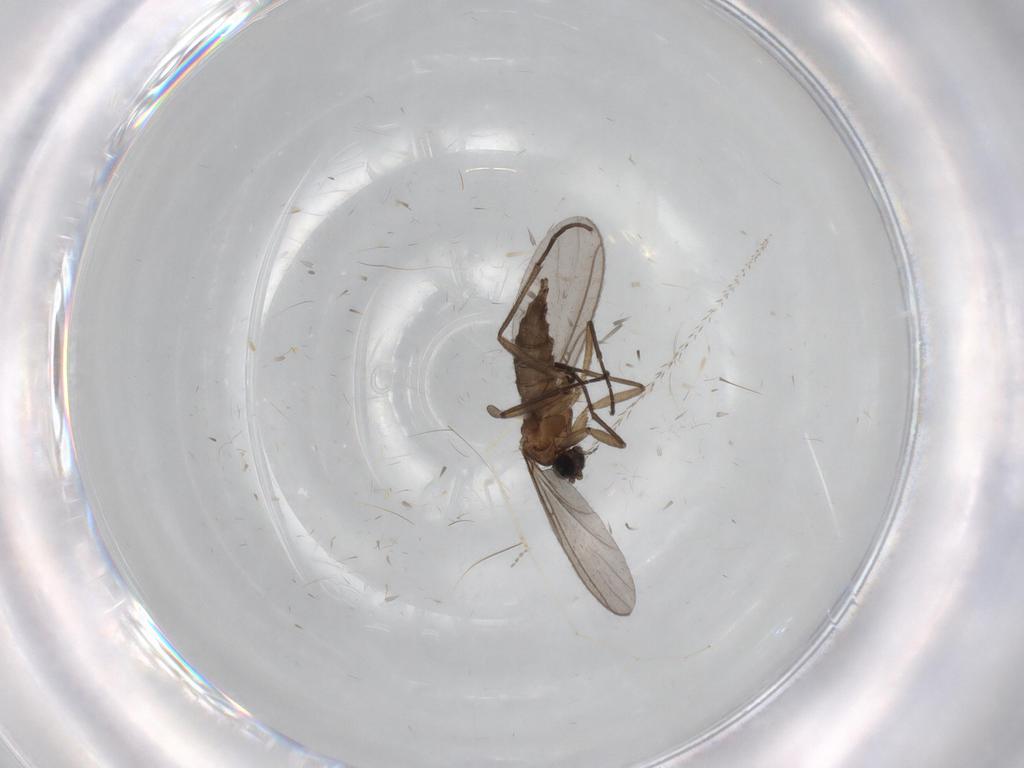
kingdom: Animalia
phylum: Arthropoda
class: Insecta
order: Diptera
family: Sciaridae
